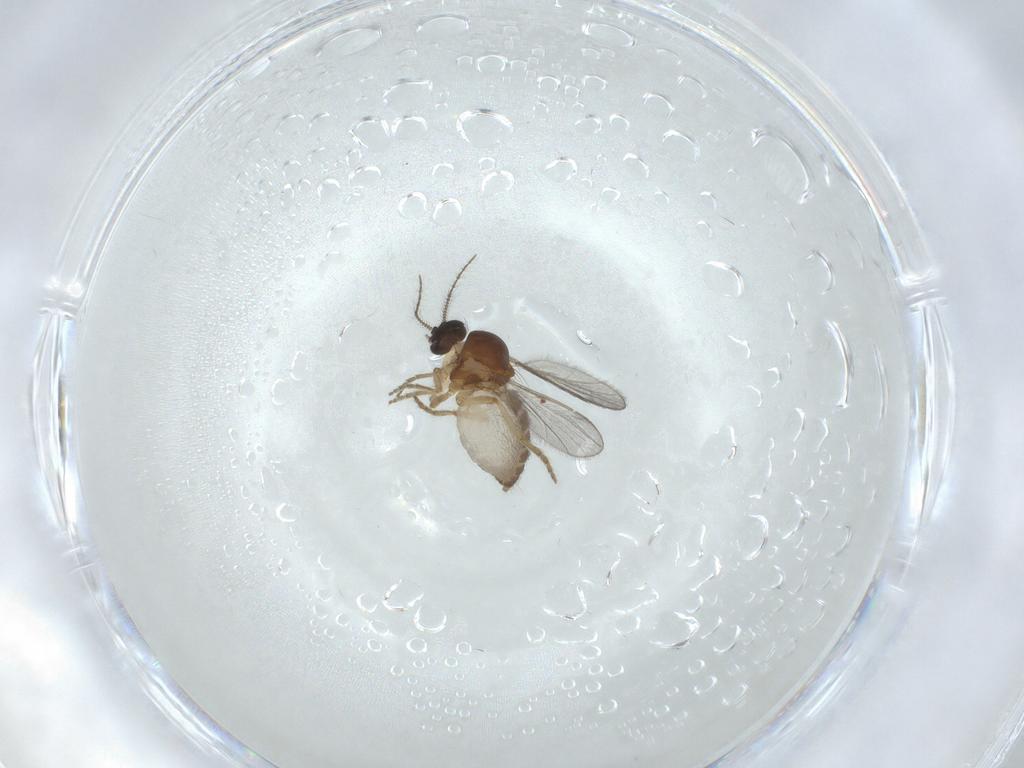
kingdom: Animalia
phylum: Arthropoda
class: Insecta
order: Diptera
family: Ceratopogonidae
